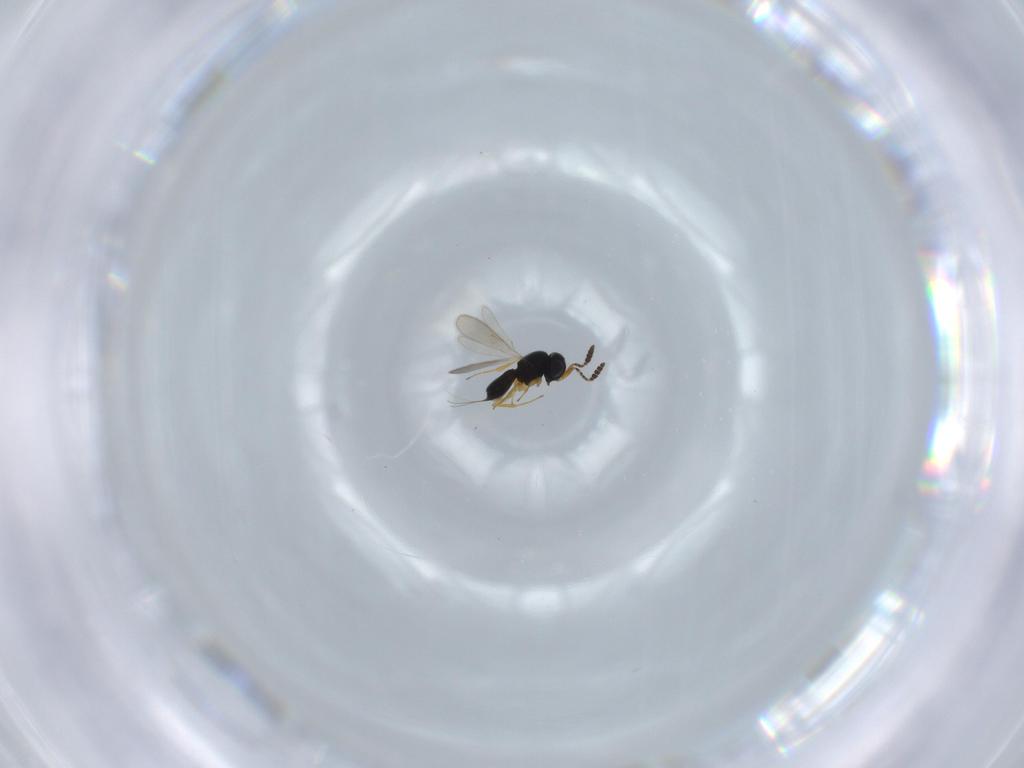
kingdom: Animalia
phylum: Arthropoda
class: Insecta
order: Hymenoptera
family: Scelionidae
